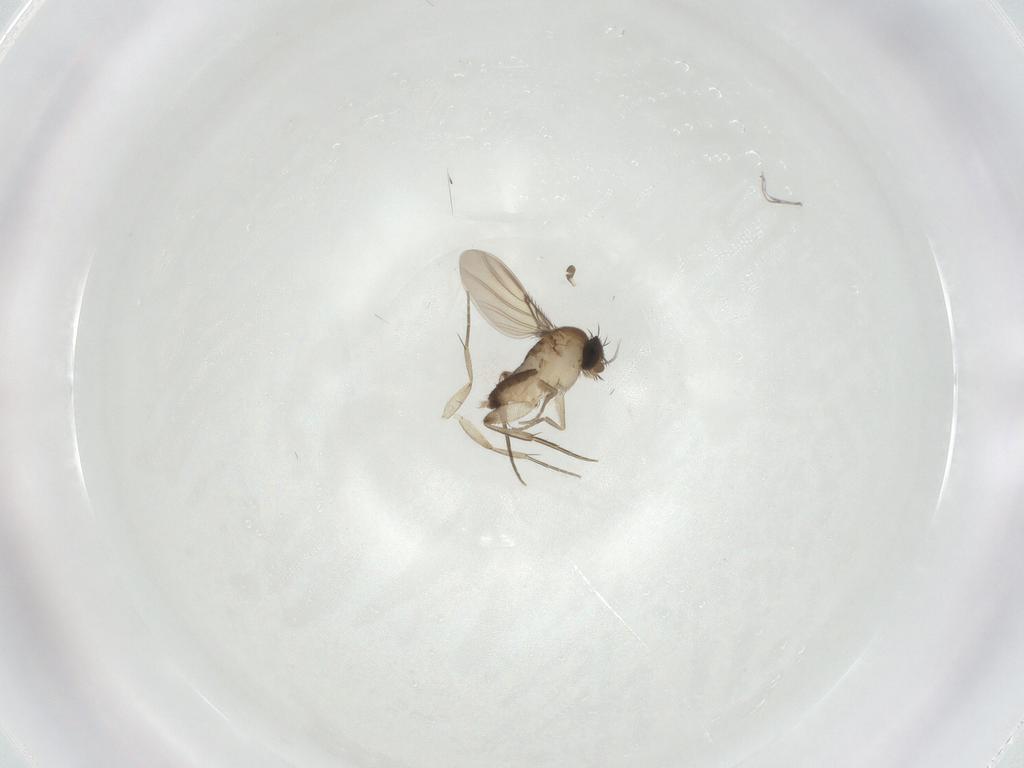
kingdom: Animalia
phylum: Arthropoda
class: Insecta
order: Diptera
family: Phoridae
